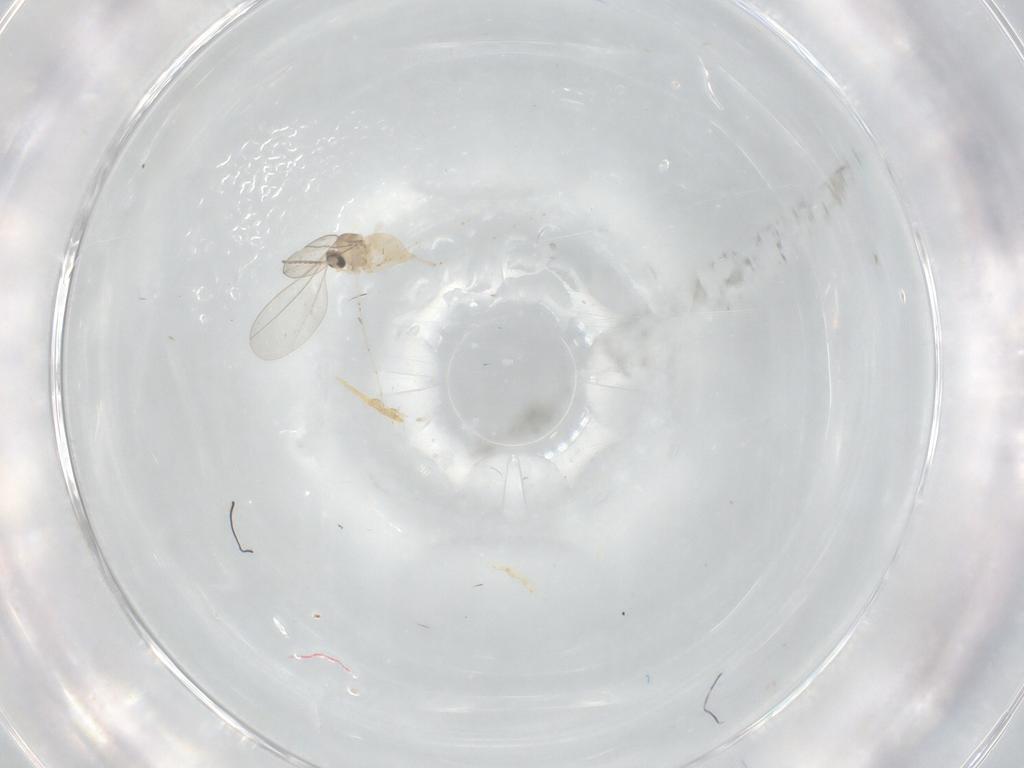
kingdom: Animalia
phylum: Arthropoda
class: Insecta
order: Diptera
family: Cecidomyiidae
